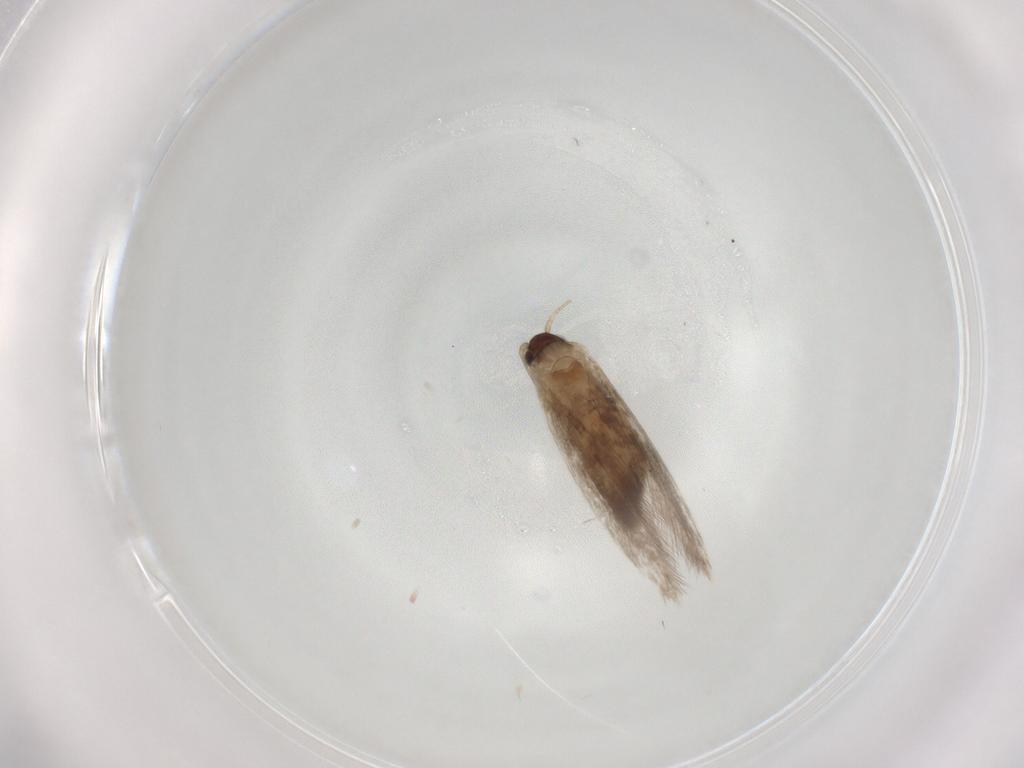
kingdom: Animalia
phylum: Arthropoda
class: Insecta
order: Lepidoptera
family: Tineidae
